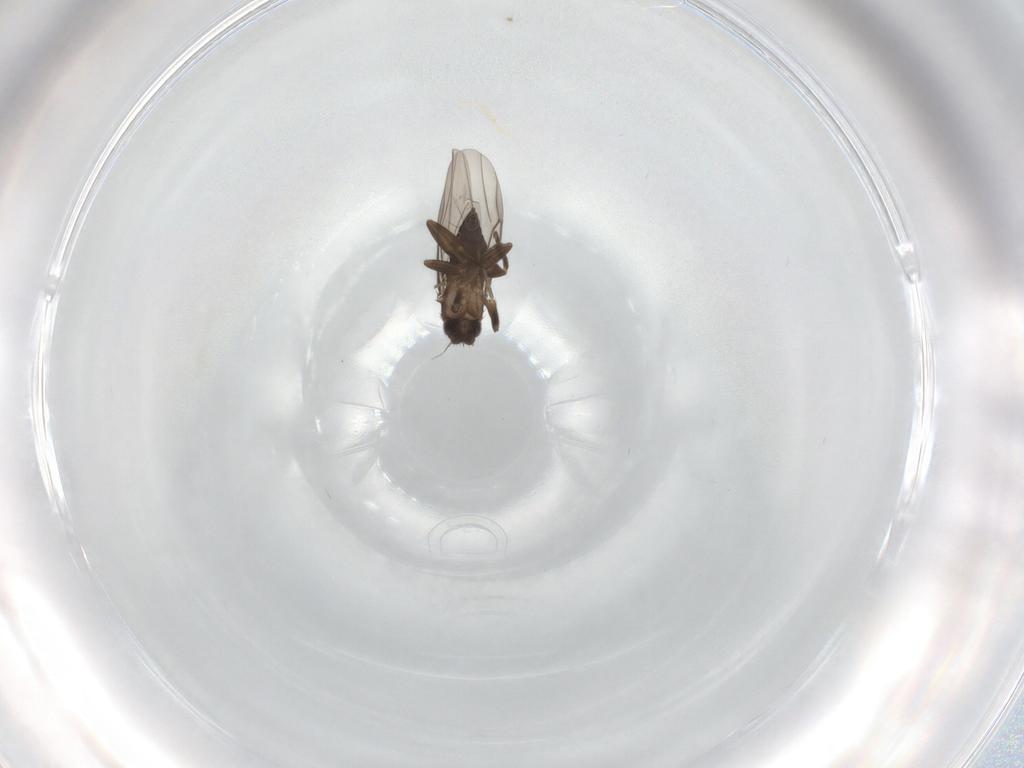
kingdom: Animalia
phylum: Arthropoda
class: Insecta
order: Diptera
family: Phoridae
